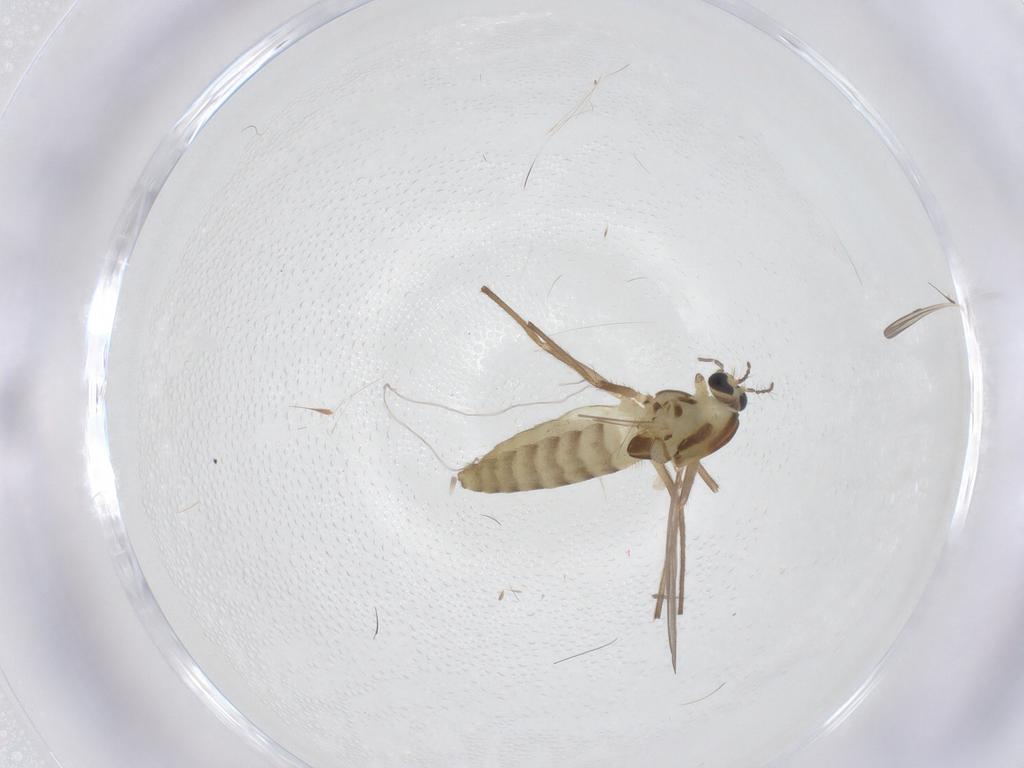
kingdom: Animalia
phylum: Arthropoda
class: Insecta
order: Diptera
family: Chironomidae
